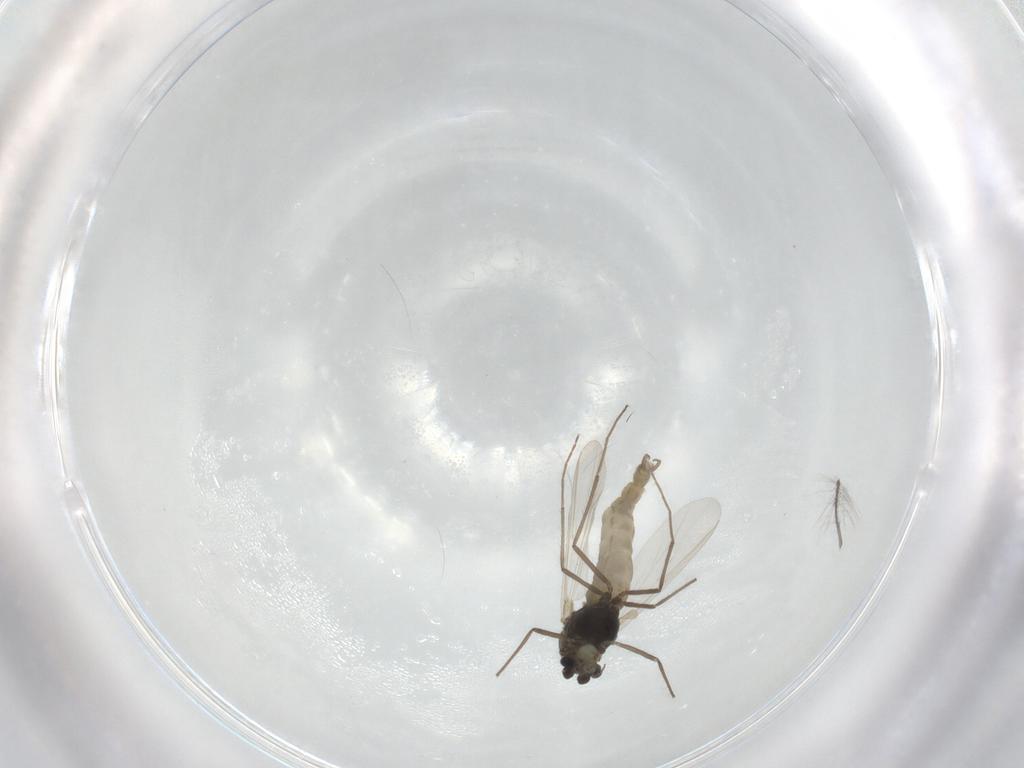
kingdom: Animalia
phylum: Arthropoda
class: Insecta
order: Diptera
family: Chironomidae
